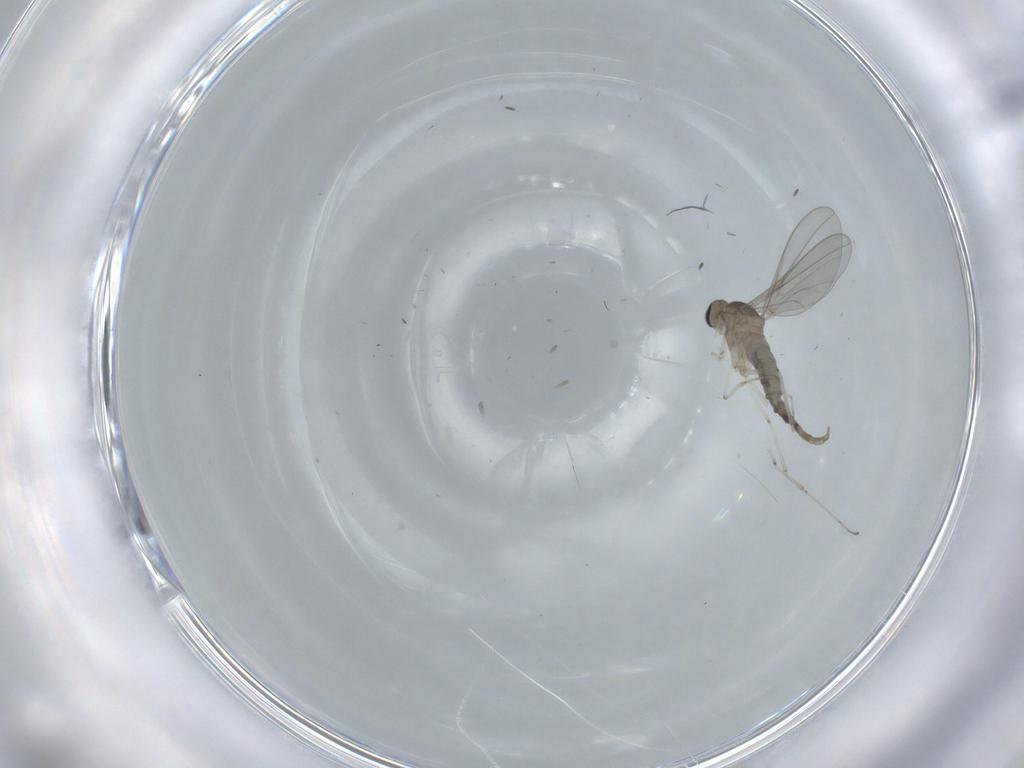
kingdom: Animalia
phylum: Arthropoda
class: Insecta
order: Diptera
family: Cecidomyiidae
